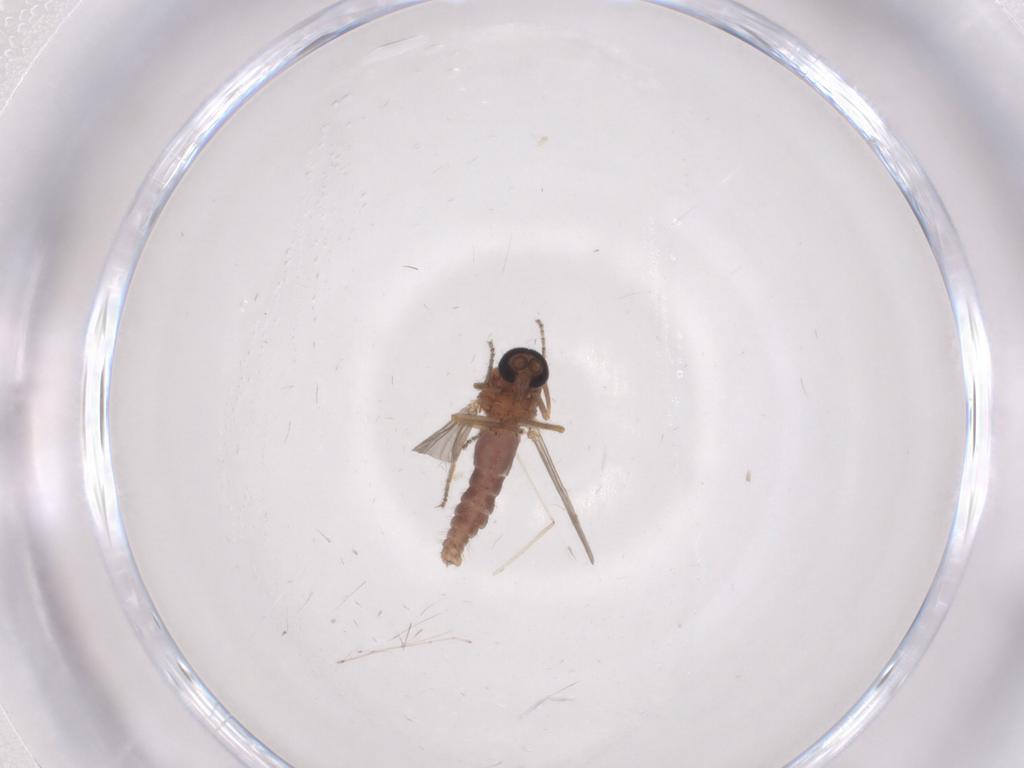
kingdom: Animalia
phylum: Arthropoda
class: Insecta
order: Diptera
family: Ceratopogonidae
